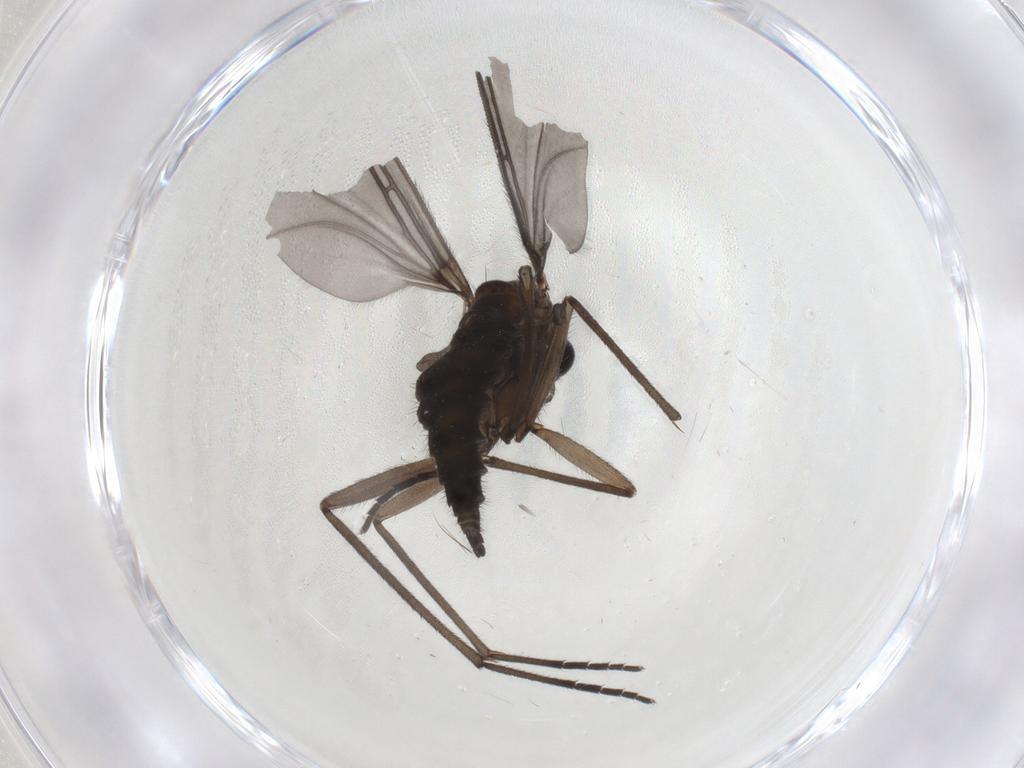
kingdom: Animalia
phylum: Arthropoda
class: Insecta
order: Diptera
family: Sciaridae
